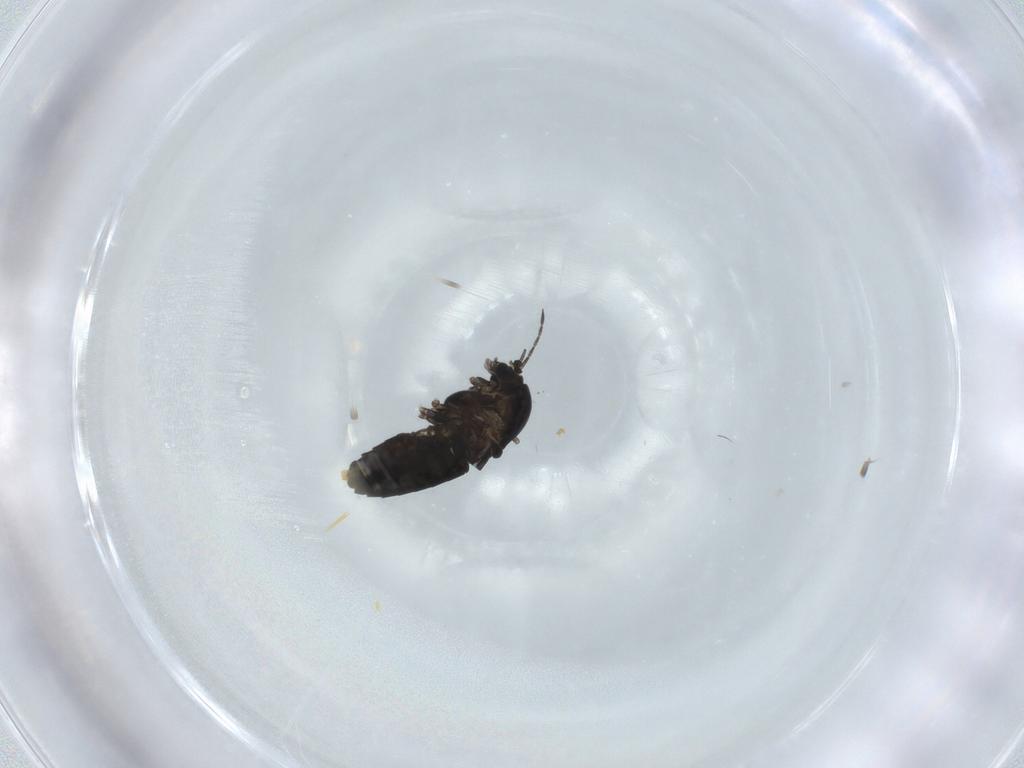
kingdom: Animalia
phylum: Arthropoda
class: Insecta
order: Diptera
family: Chironomidae
